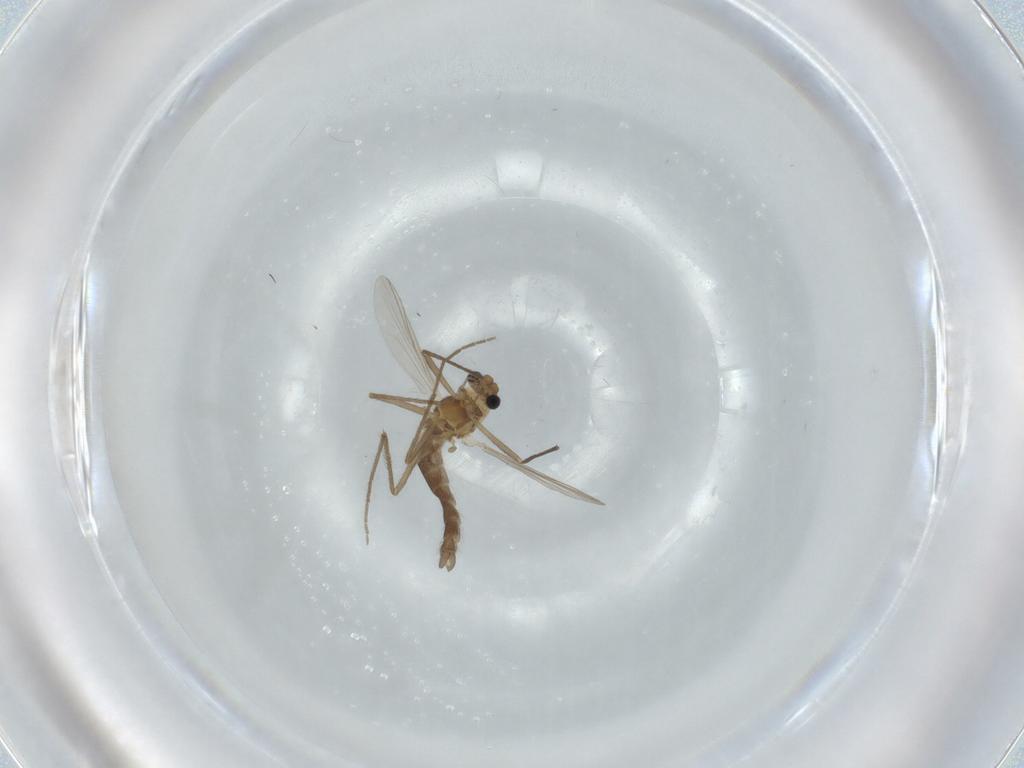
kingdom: Animalia
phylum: Arthropoda
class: Insecta
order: Diptera
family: Chironomidae
